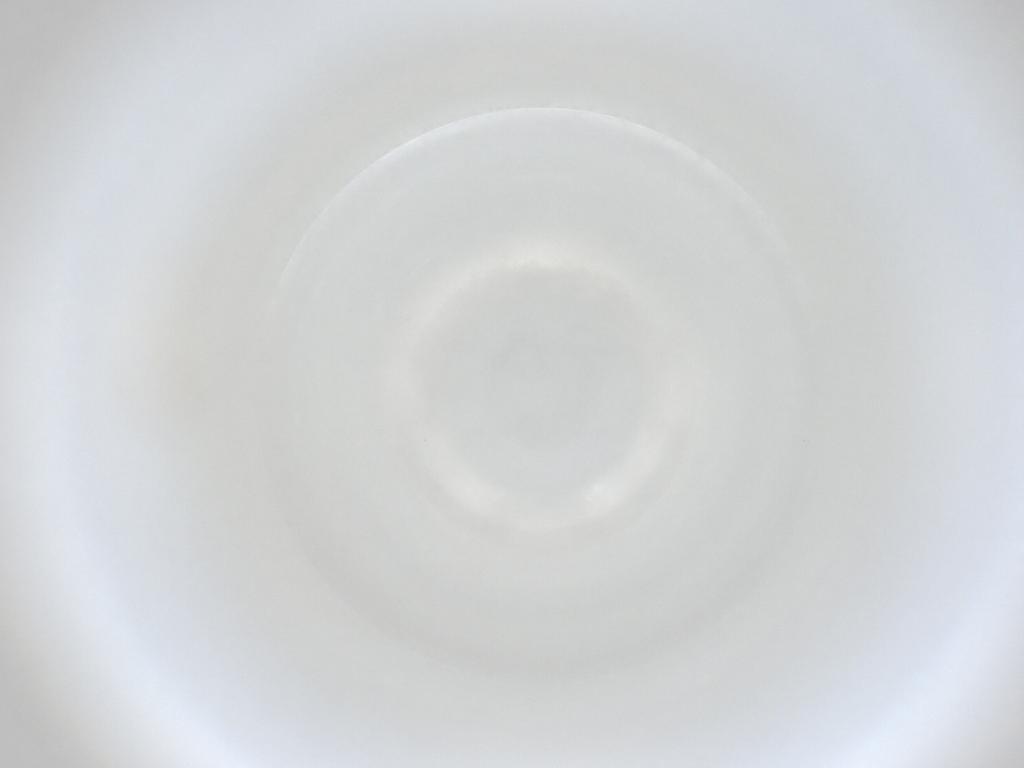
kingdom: Animalia
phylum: Arthropoda
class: Insecta
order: Diptera
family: Cecidomyiidae
